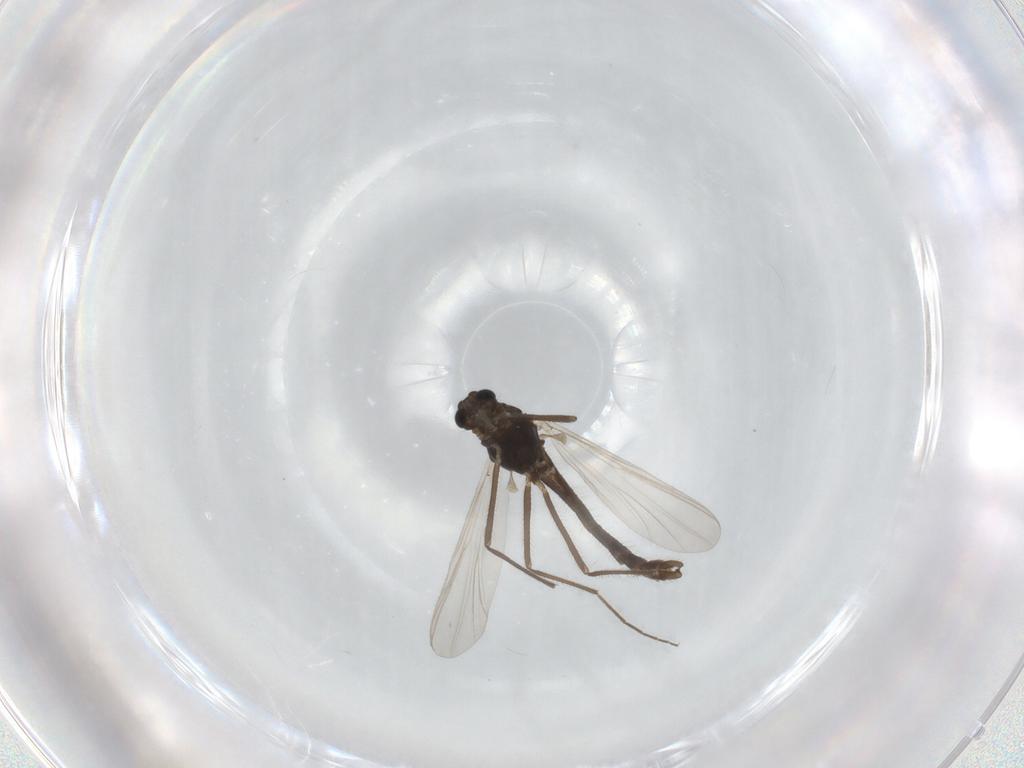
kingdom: Animalia
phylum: Arthropoda
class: Insecta
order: Diptera
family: Chironomidae
